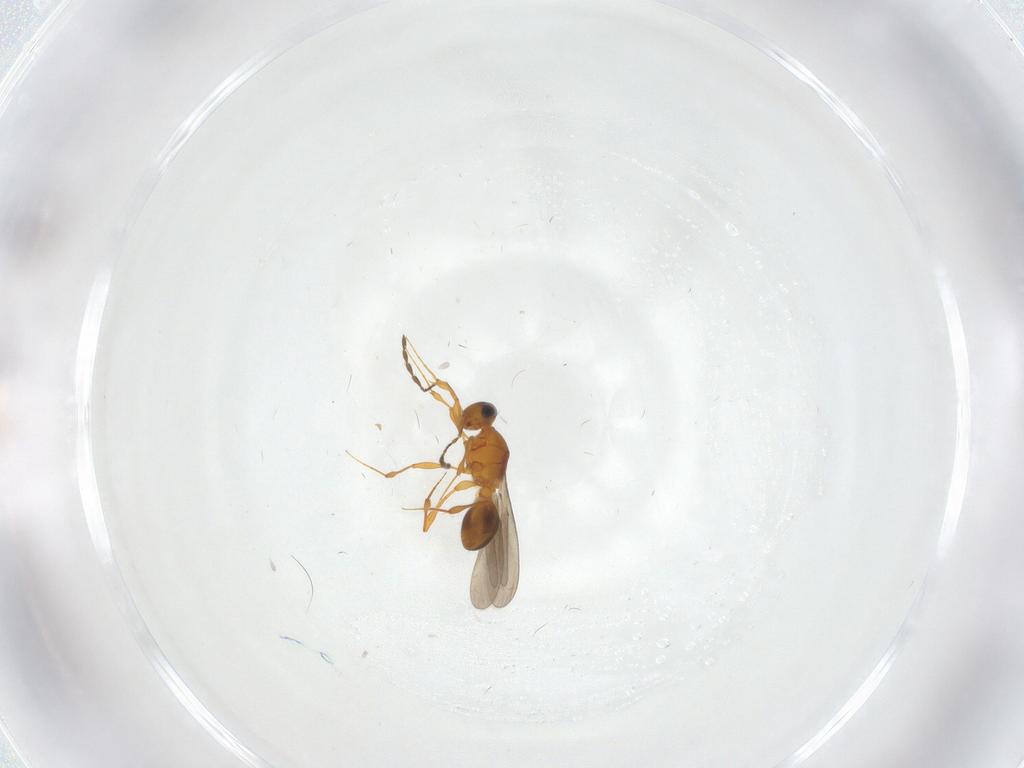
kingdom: Animalia
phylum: Arthropoda
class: Insecta
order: Hymenoptera
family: Platygastridae
